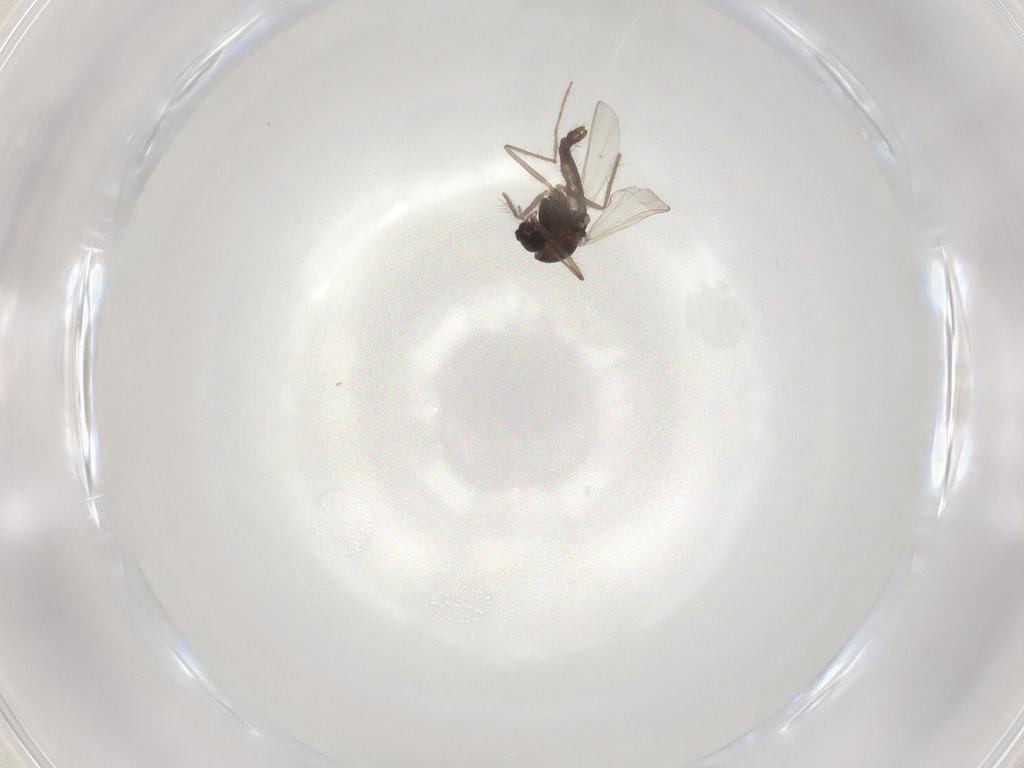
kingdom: Animalia
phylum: Arthropoda
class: Insecta
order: Diptera
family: Chironomidae
